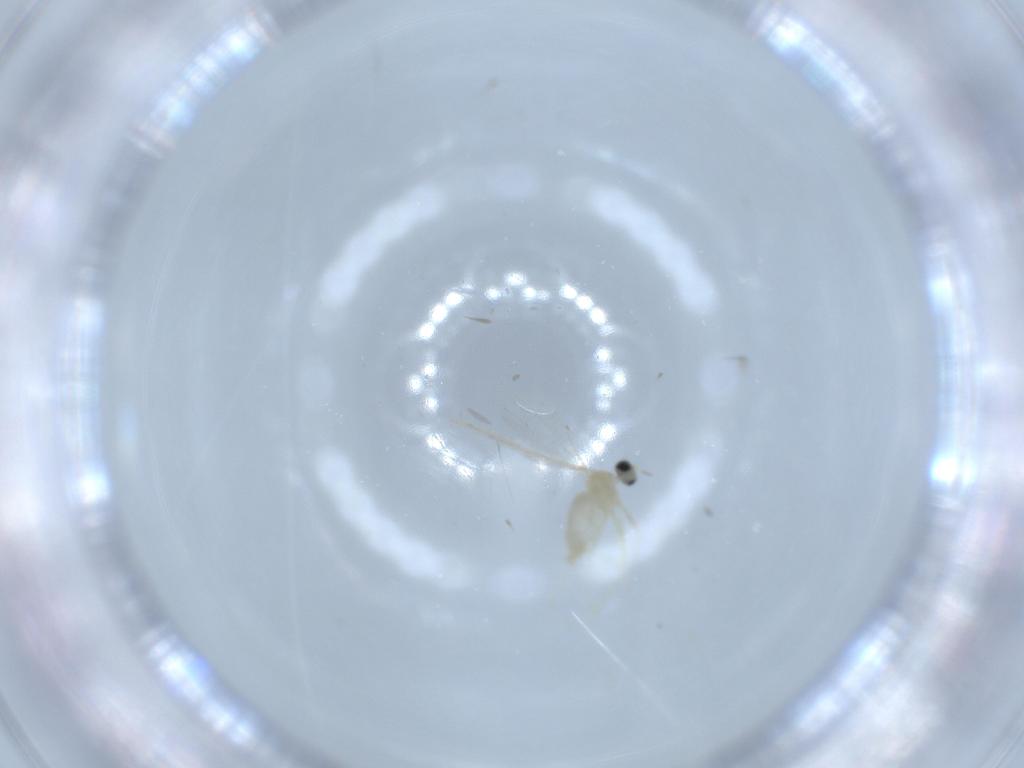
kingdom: Animalia
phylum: Arthropoda
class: Insecta
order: Diptera
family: Cecidomyiidae
